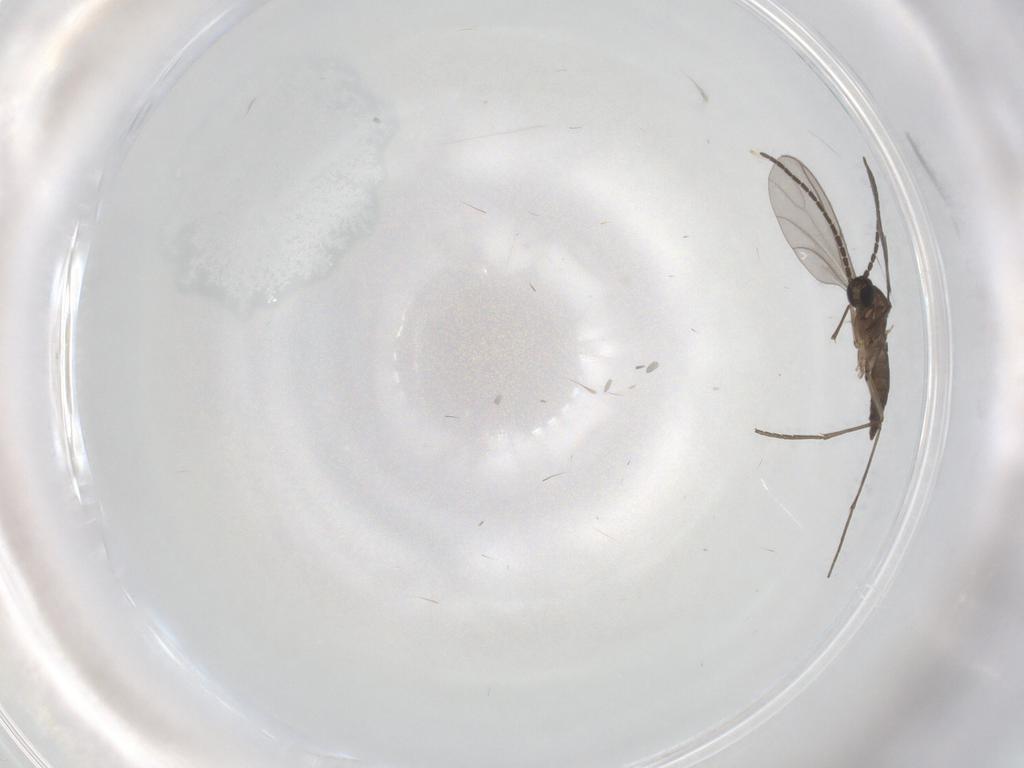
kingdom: Animalia
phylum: Arthropoda
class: Insecta
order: Diptera
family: Sciaridae
